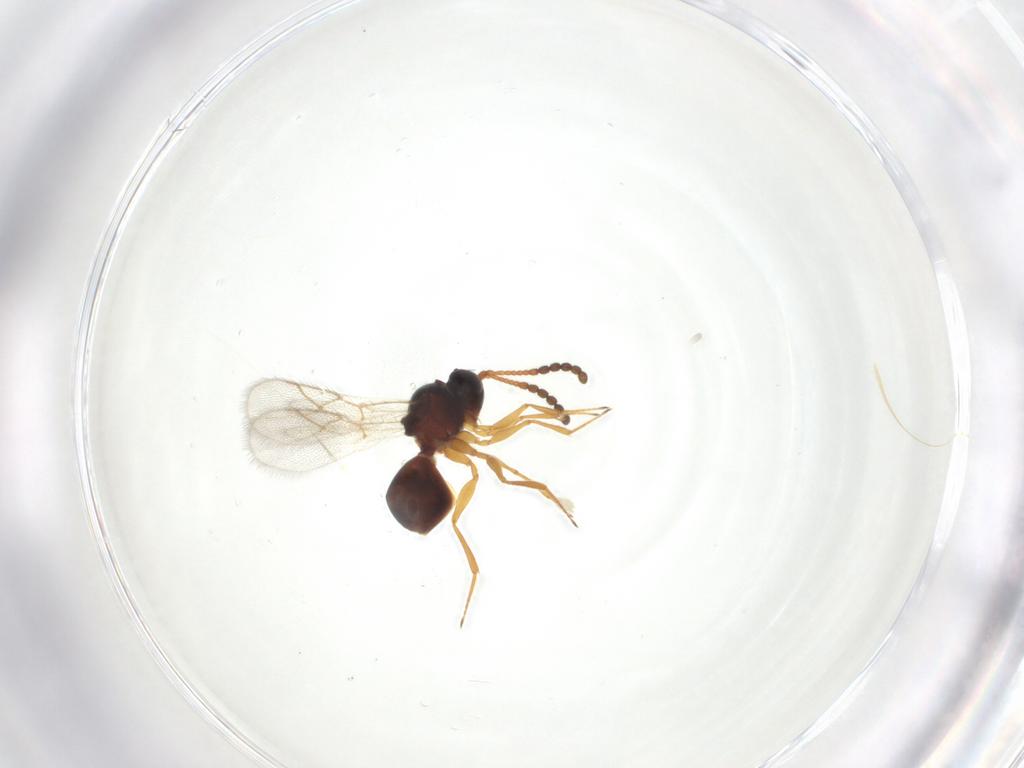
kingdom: Animalia
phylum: Arthropoda
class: Insecta
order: Hymenoptera
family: Figitidae
